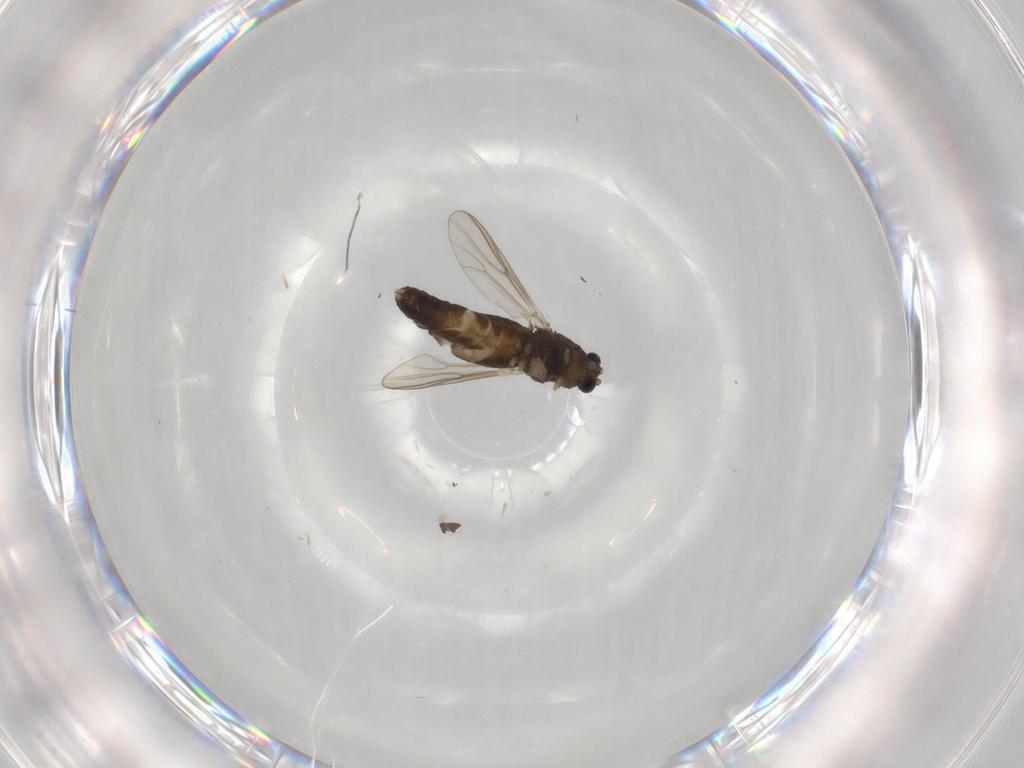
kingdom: Animalia
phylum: Arthropoda
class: Insecta
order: Diptera
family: Chironomidae
